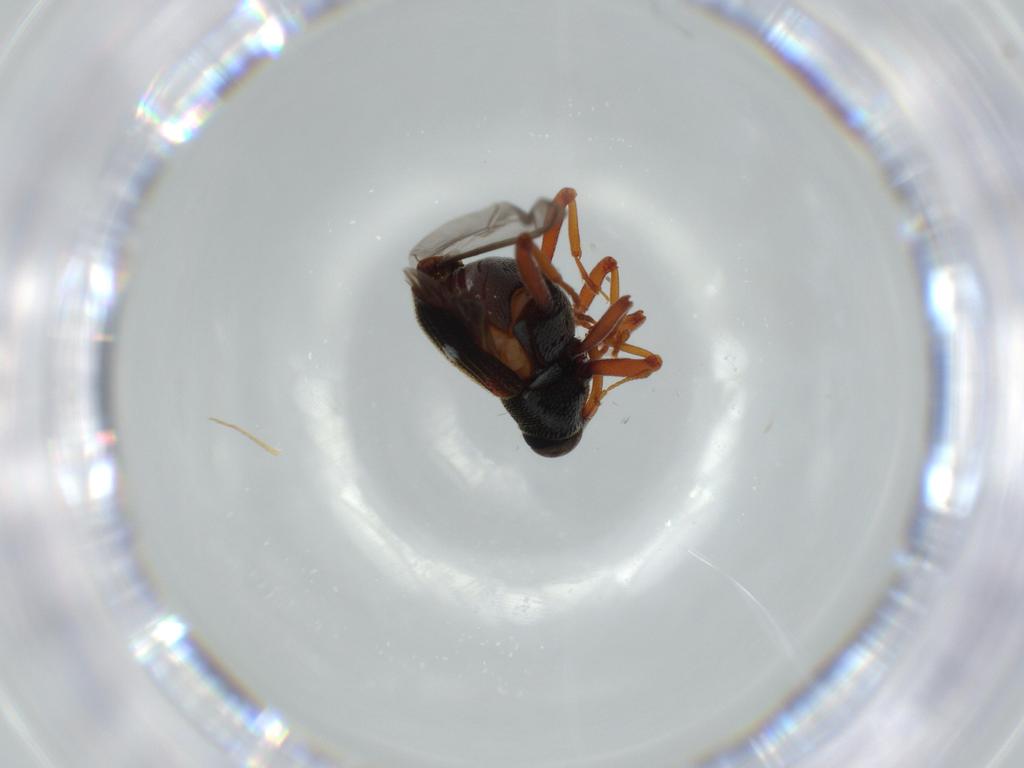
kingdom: Animalia
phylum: Arthropoda
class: Insecta
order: Coleoptera
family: Curculionidae
